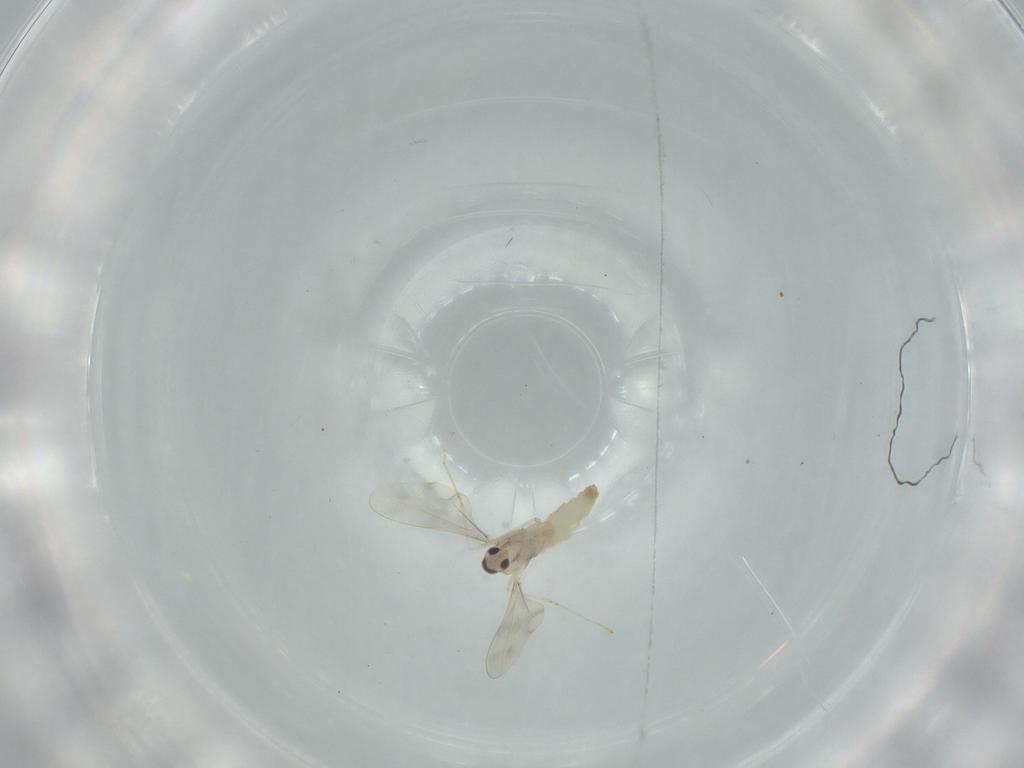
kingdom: Animalia
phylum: Arthropoda
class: Insecta
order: Diptera
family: Cecidomyiidae
